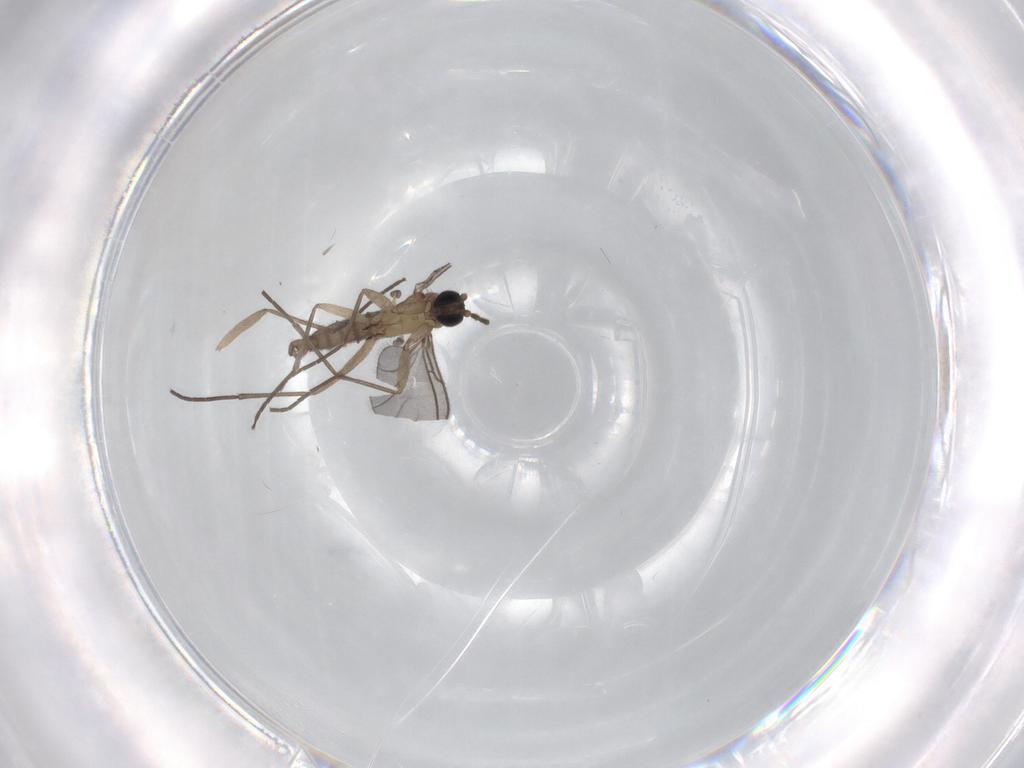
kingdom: Animalia
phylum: Arthropoda
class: Insecta
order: Diptera
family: Sciaridae
